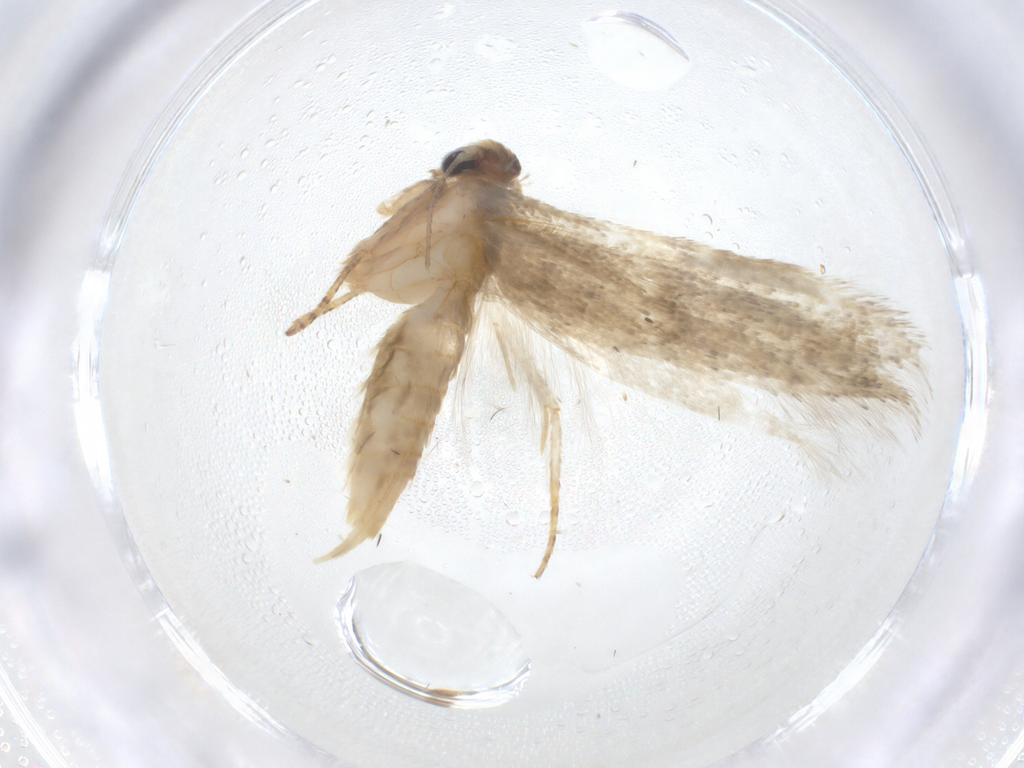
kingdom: Animalia
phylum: Arthropoda
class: Insecta
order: Lepidoptera
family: Blastobasidae
